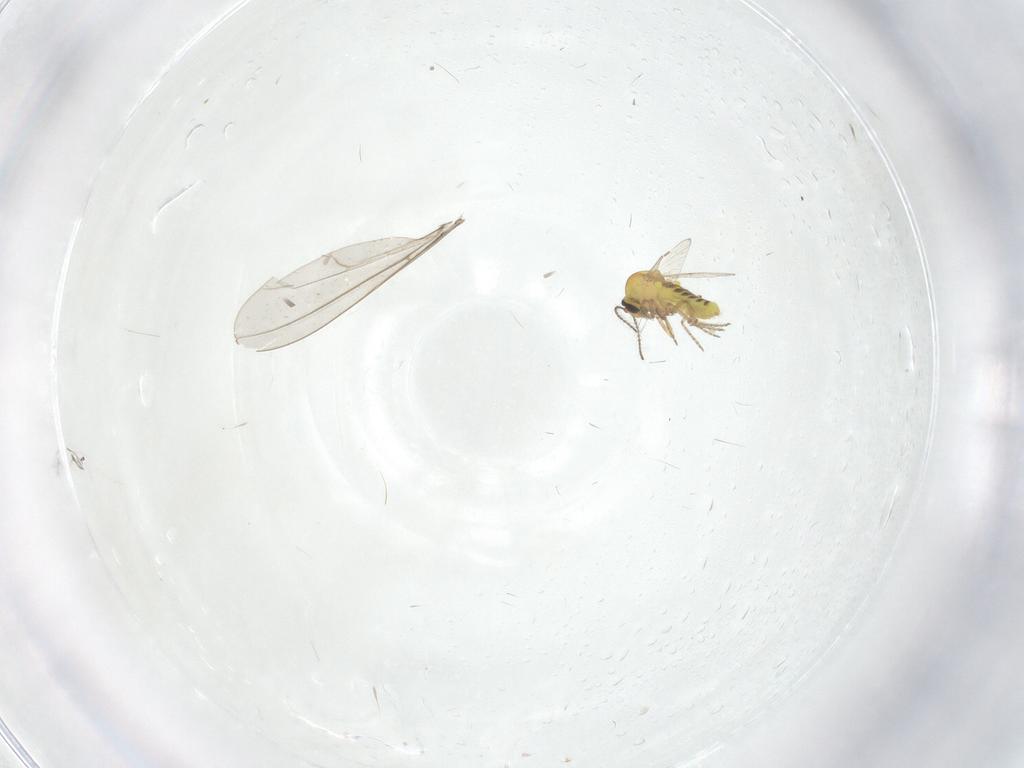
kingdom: Animalia
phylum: Arthropoda
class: Insecta
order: Diptera
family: Ceratopogonidae
